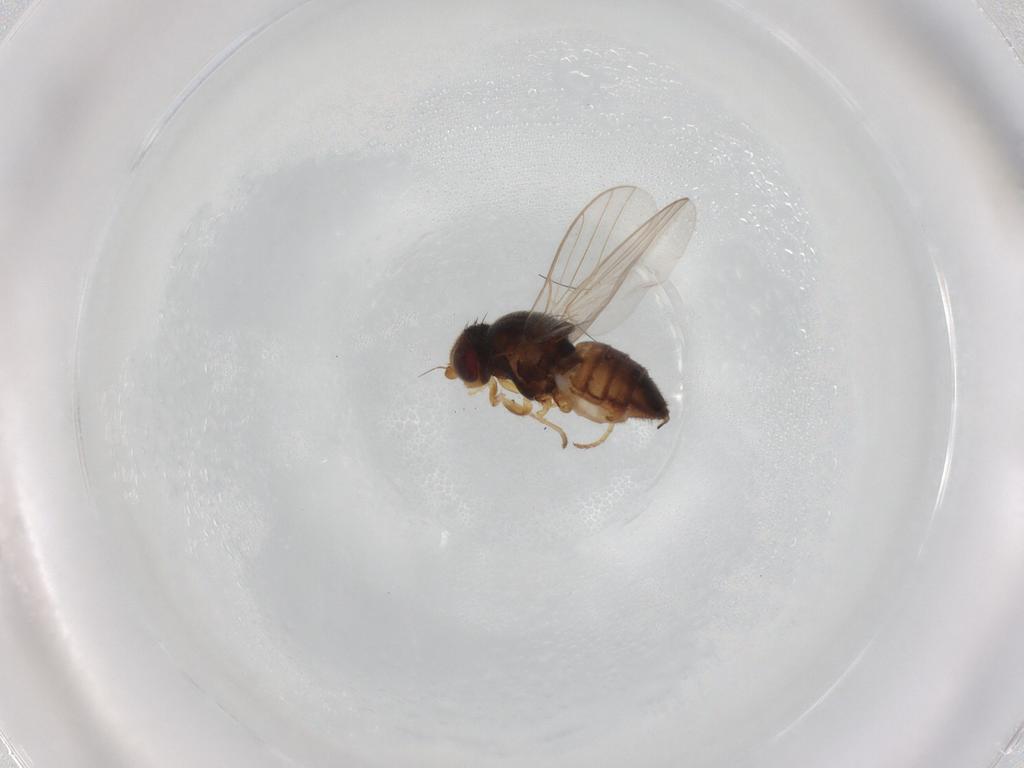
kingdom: Animalia
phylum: Arthropoda
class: Insecta
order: Diptera
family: Chloropidae
